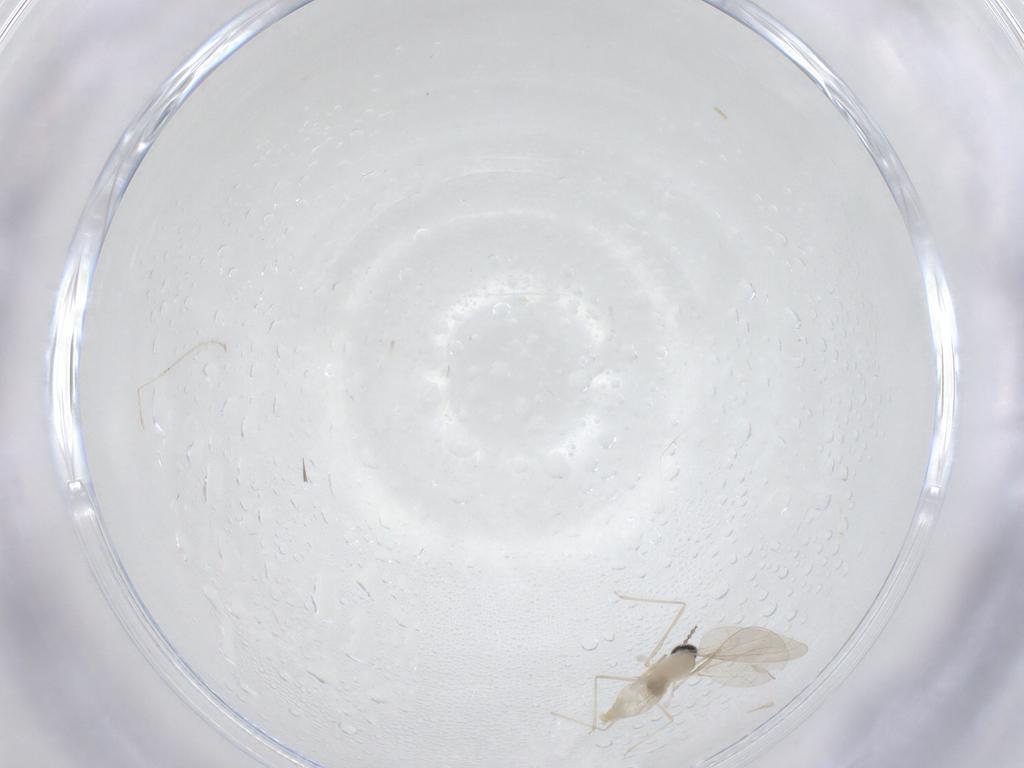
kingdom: Animalia
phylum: Arthropoda
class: Insecta
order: Diptera
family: Cecidomyiidae
